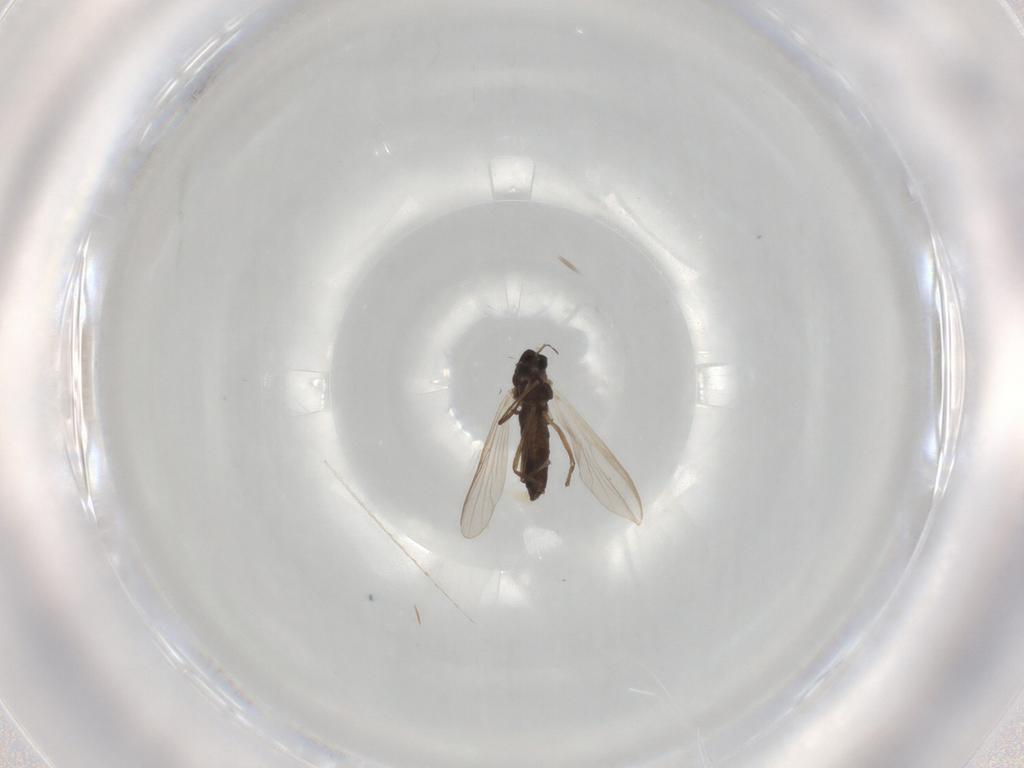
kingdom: Animalia
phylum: Arthropoda
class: Insecta
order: Diptera
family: Chironomidae
